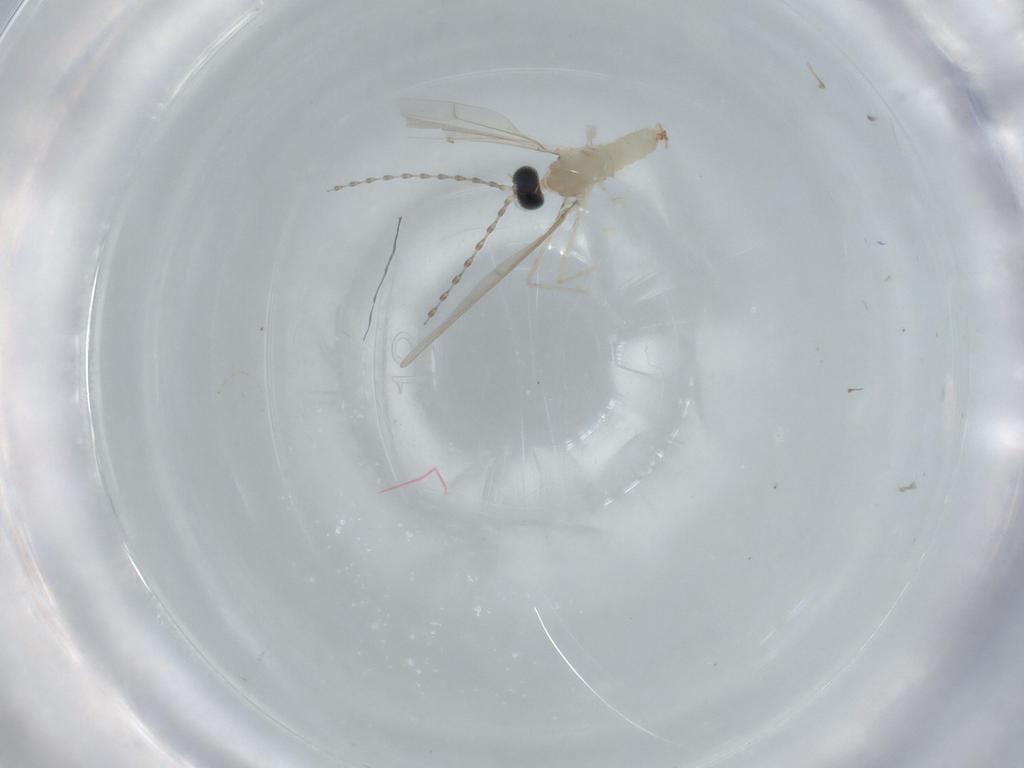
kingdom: Animalia
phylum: Arthropoda
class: Insecta
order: Diptera
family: Cecidomyiidae
